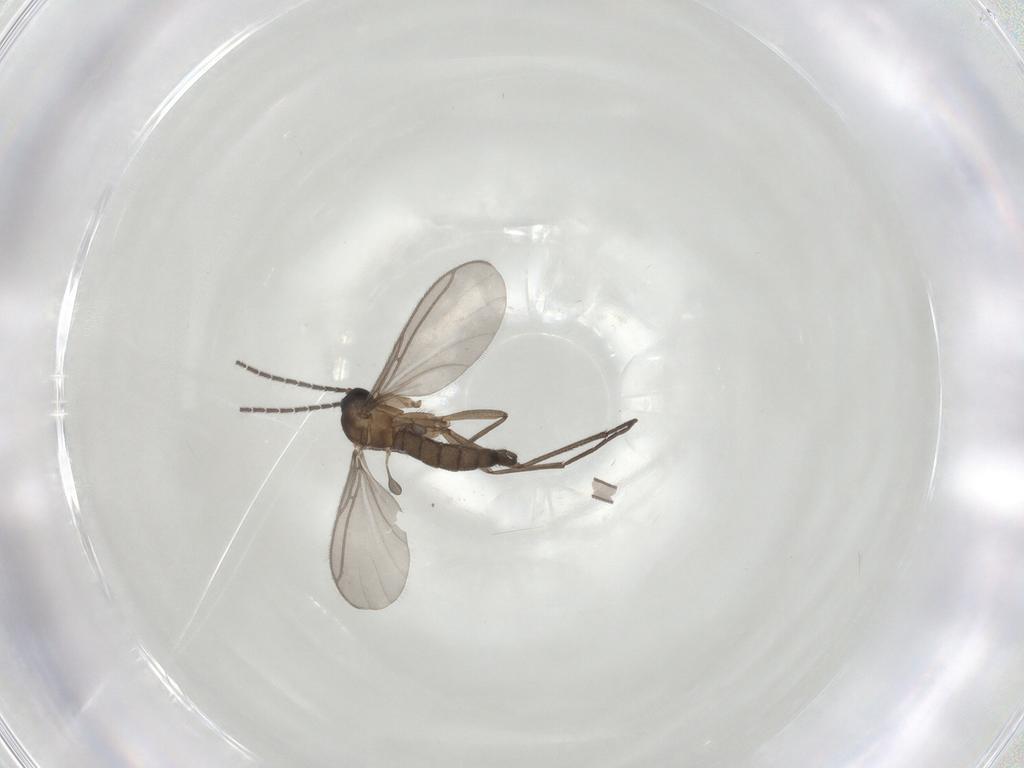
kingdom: Animalia
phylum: Arthropoda
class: Insecta
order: Diptera
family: Sciaridae
